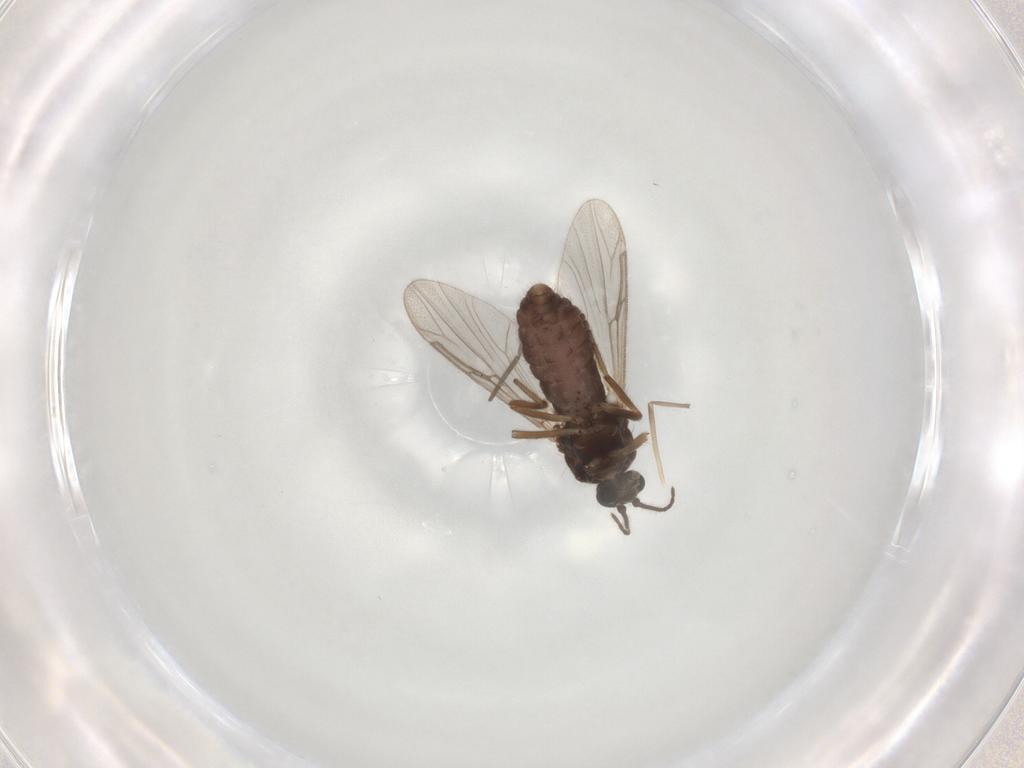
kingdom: Animalia
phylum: Arthropoda
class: Insecta
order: Diptera
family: Ceratopogonidae
